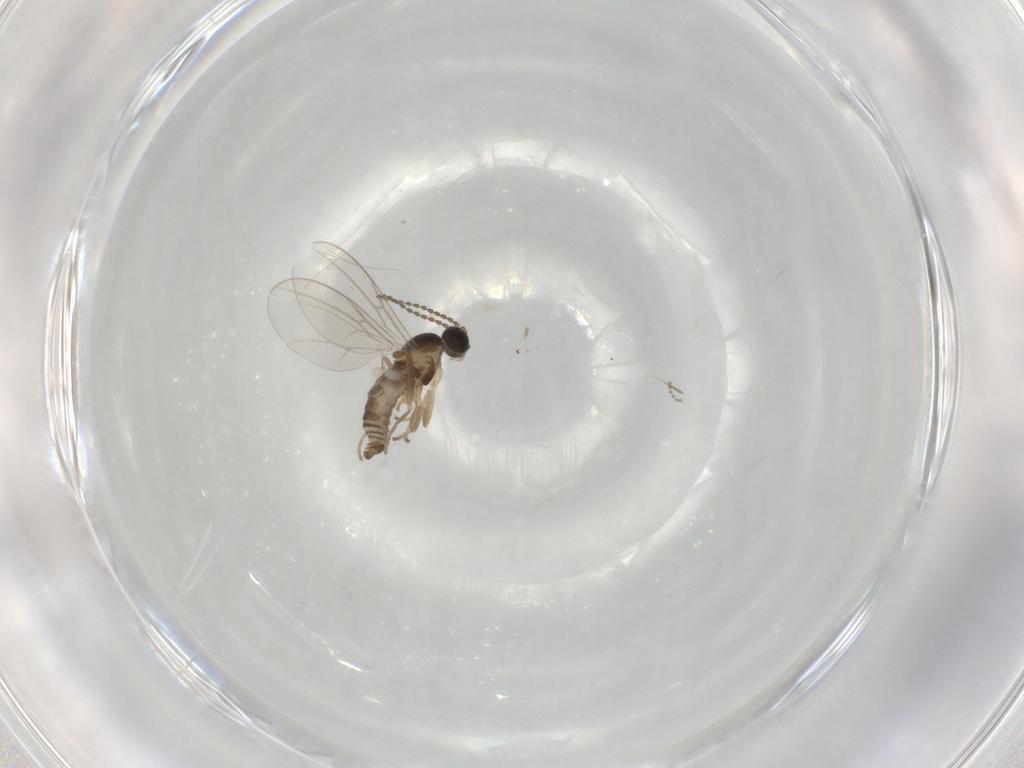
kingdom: Animalia
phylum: Arthropoda
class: Insecta
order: Diptera
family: Cecidomyiidae
